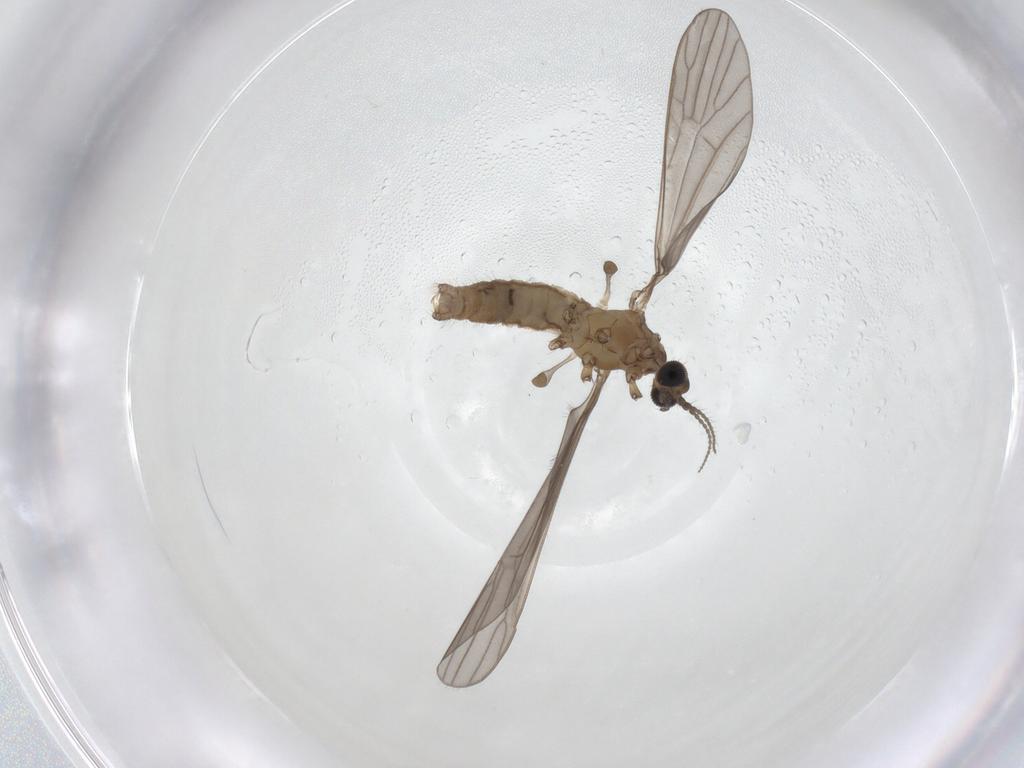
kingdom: Animalia
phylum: Arthropoda
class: Insecta
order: Diptera
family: Limoniidae
